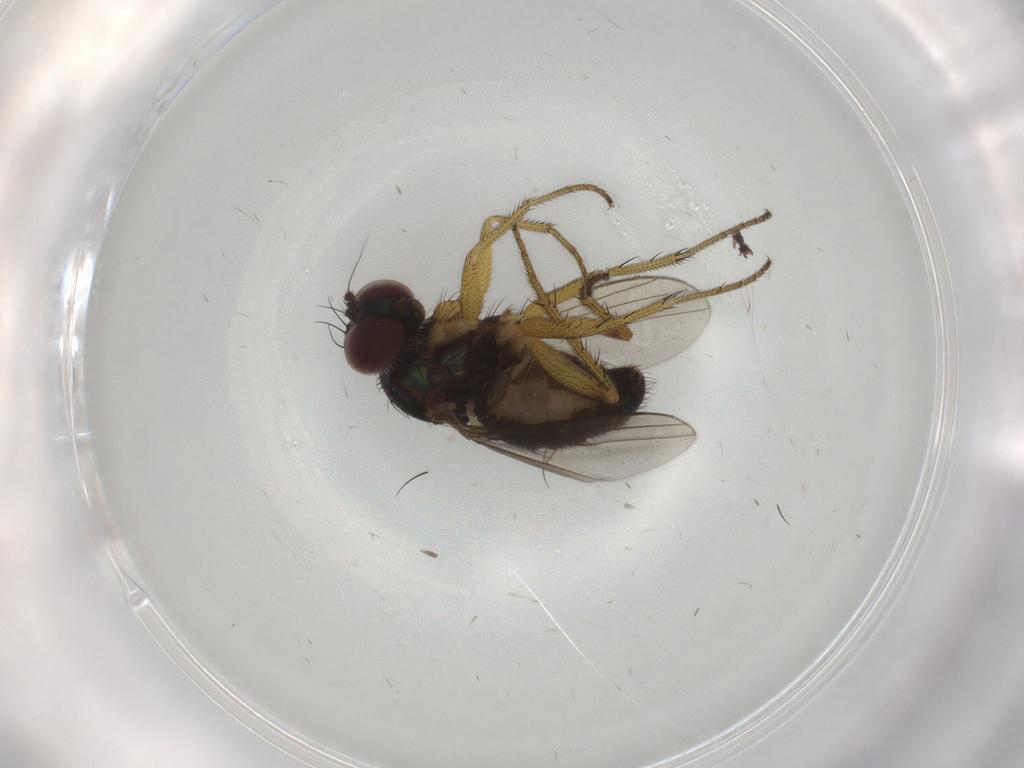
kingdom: Animalia
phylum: Arthropoda
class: Insecta
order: Diptera
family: Dolichopodidae
